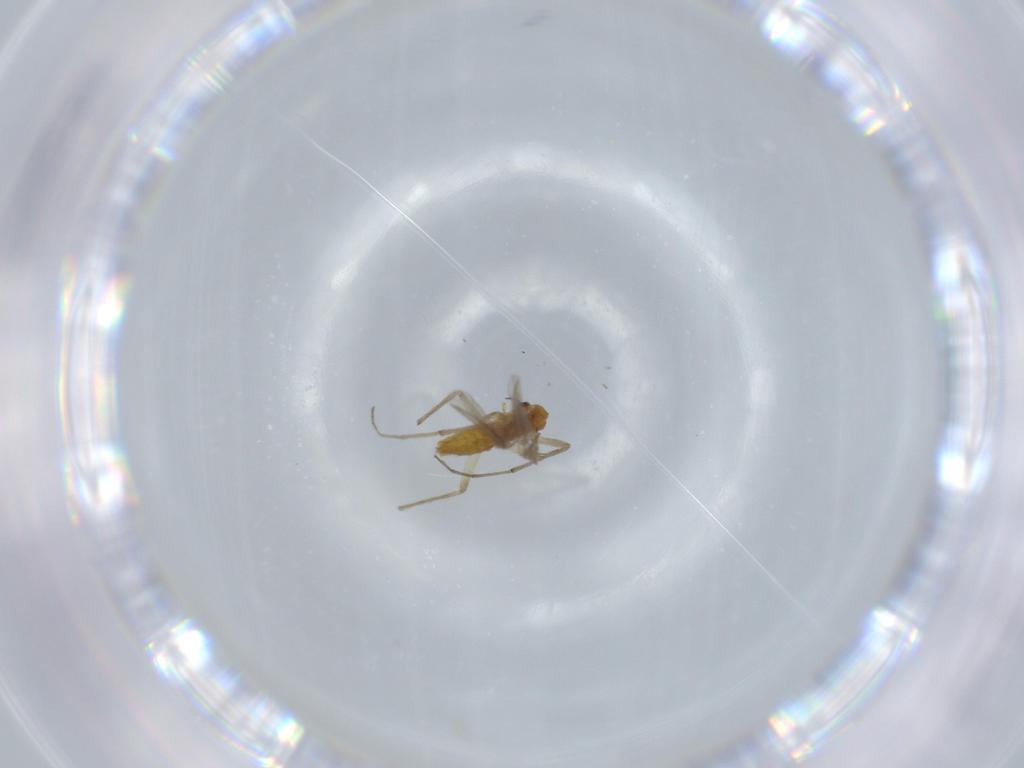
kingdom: Animalia
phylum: Arthropoda
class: Insecta
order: Diptera
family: Chironomidae
